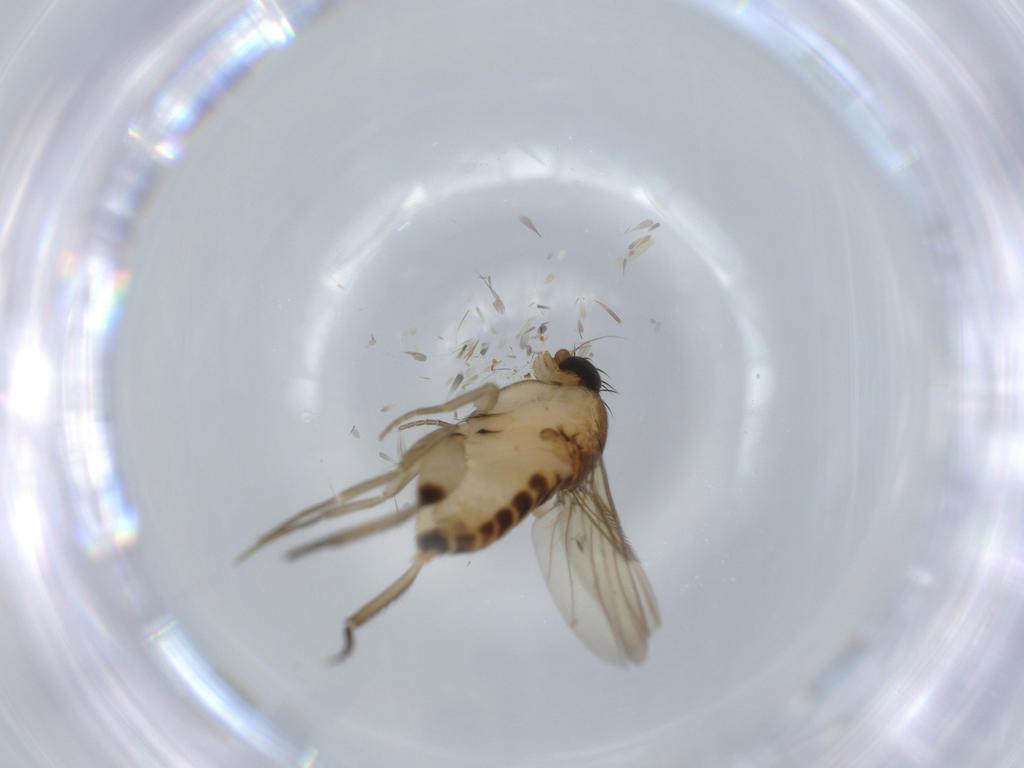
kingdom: Animalia
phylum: Arthropoda
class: Insecta
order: Diptera
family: Phoridae
